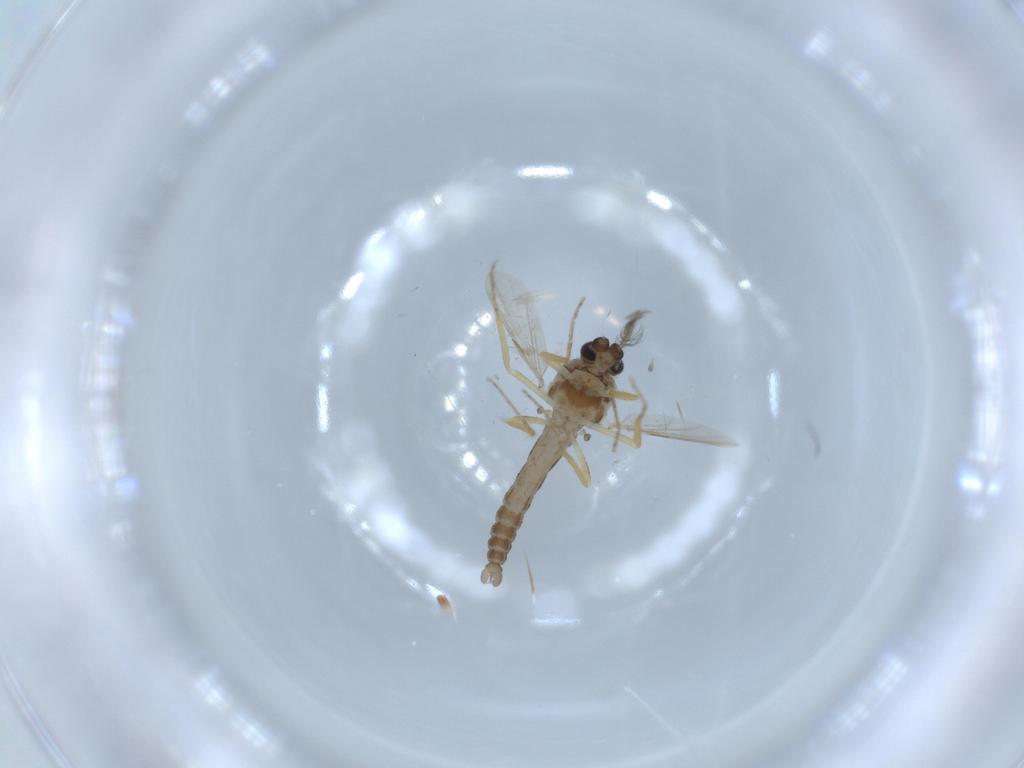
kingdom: Animalia
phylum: Arthropoda
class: Insecta
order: Diptera
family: Ceratopogonidae
